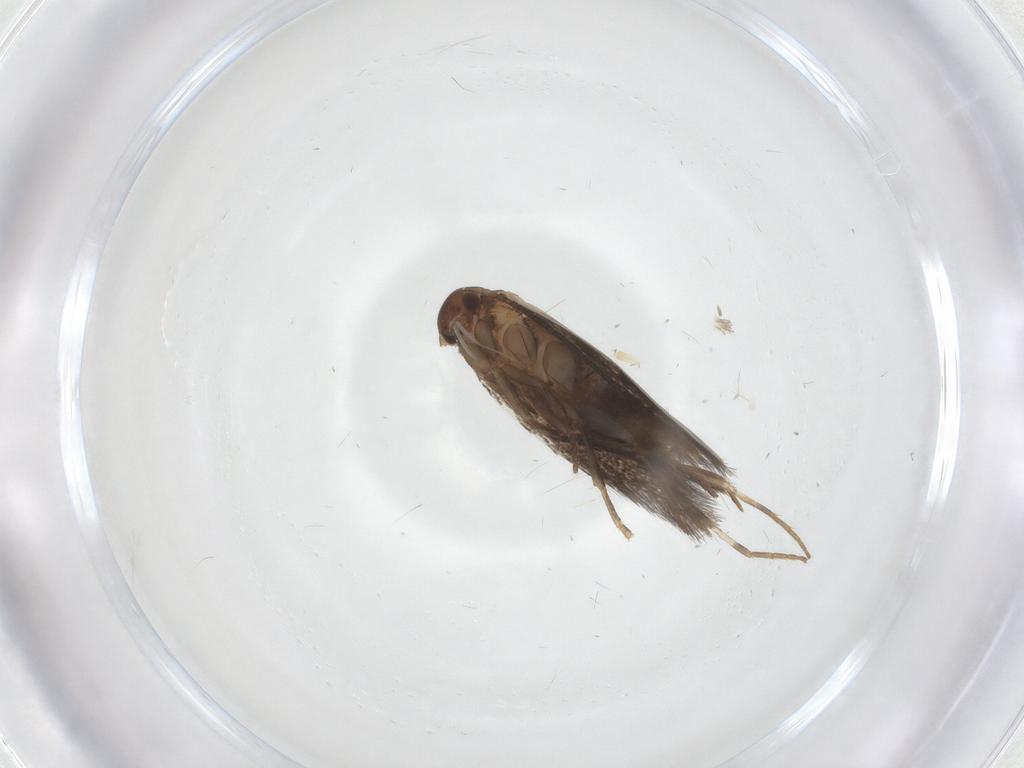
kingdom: Animalia
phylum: Arthropoda
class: Insecta
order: Lepidoptera
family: Elachistidae
